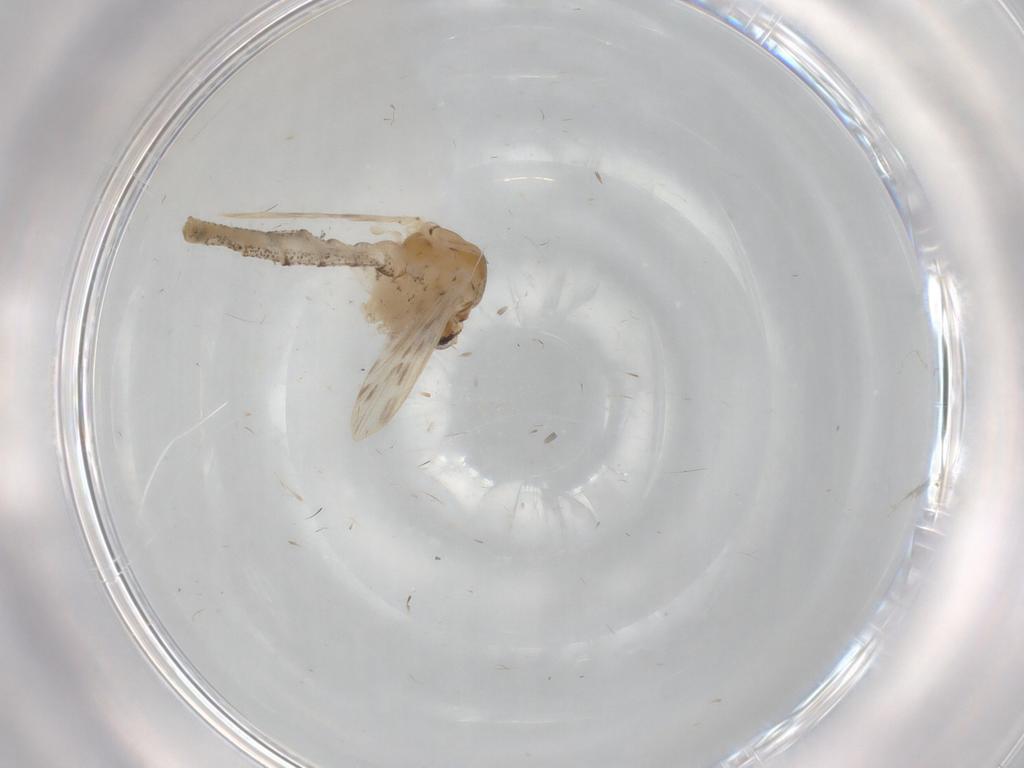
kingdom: Animalia
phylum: Arthropoda
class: Insecta
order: Diptera
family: Chaoboridae
